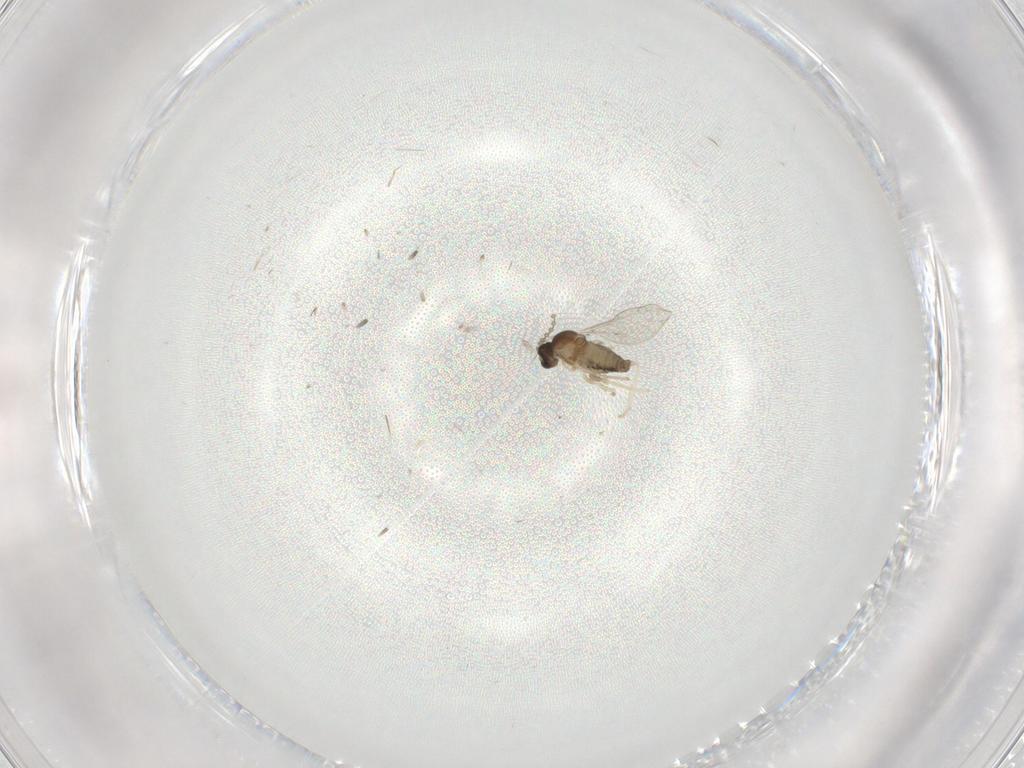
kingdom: Animalia
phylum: Arthropoda
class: Insecta
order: Diptera
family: Cecidomyiidae
